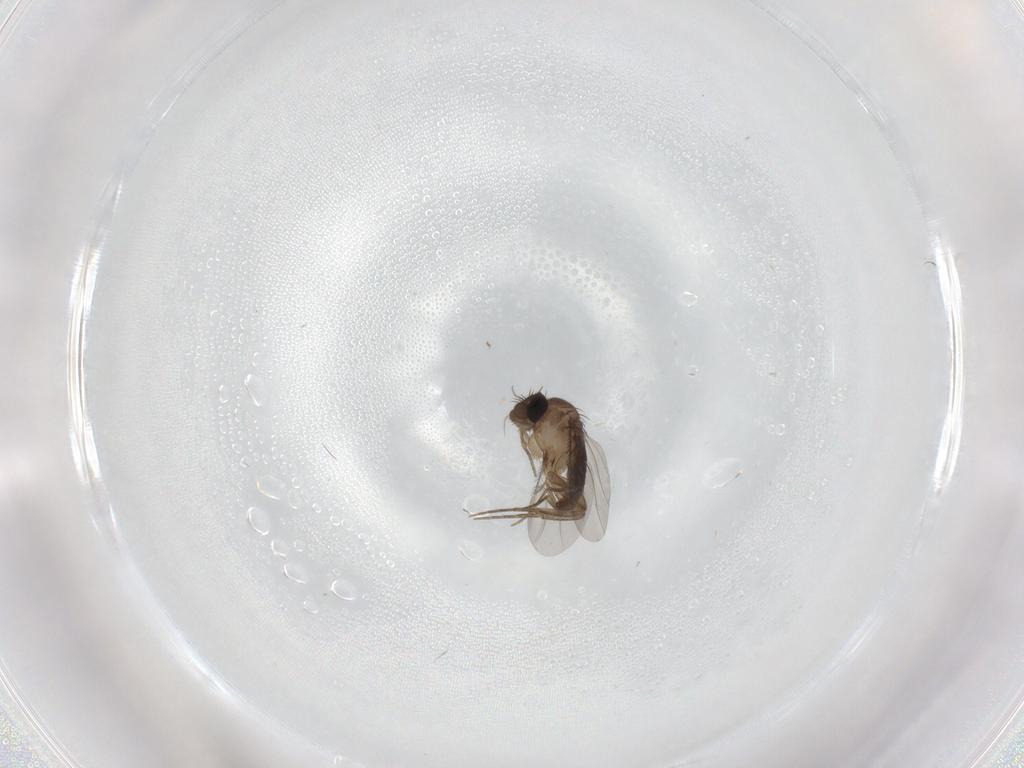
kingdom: Animalia
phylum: Arthropoda
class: Insecta
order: Diptera
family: Phoridae
